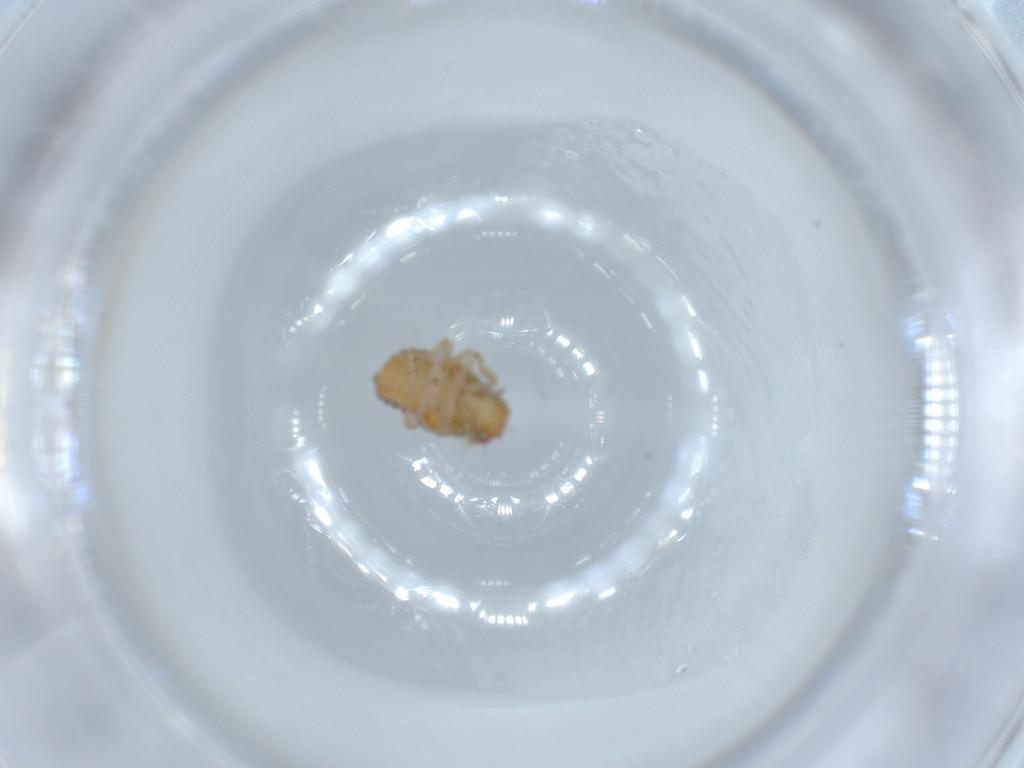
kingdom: Animalia
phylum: Arthropoda
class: Insecta
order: Hemiptera
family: Issidae
